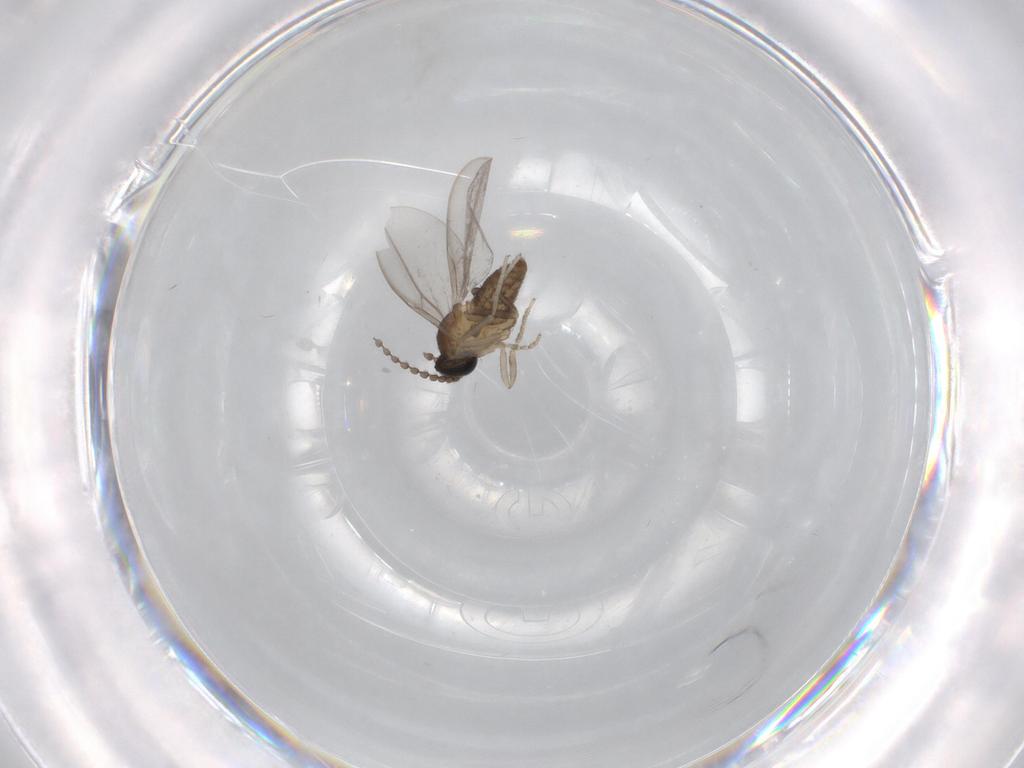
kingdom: Animalia
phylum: Arthropoda
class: Insecta
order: Diptera
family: Cecidomyiidae
